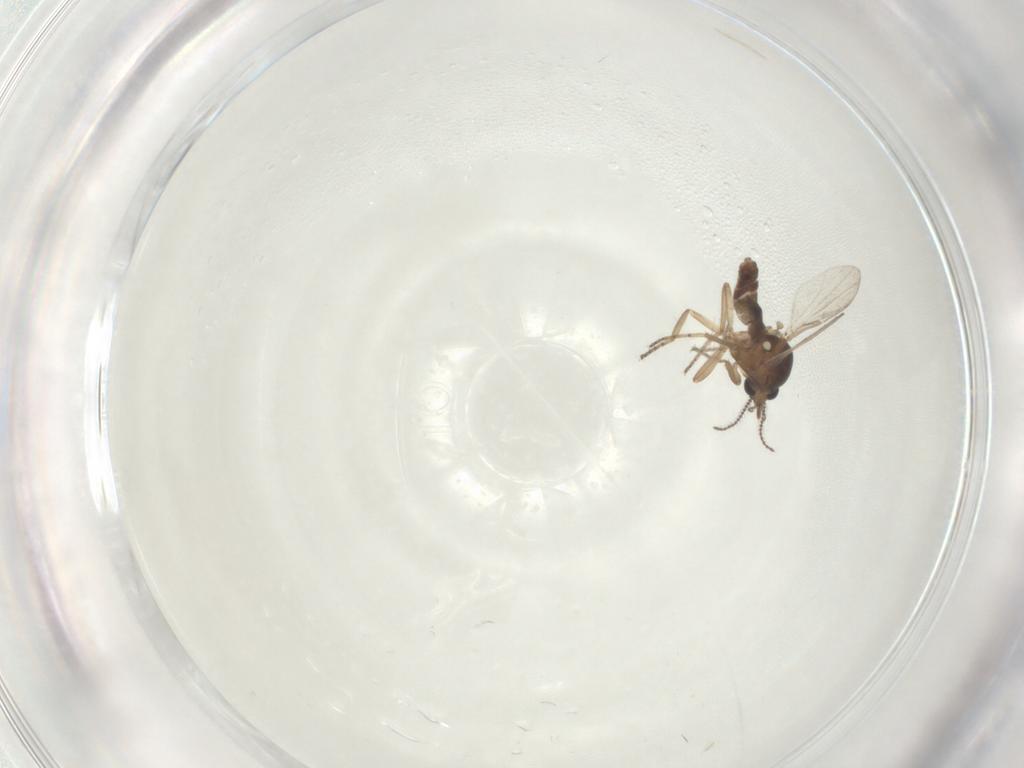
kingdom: Animalia
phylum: Arthropoda
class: Insecta
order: Diptera
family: Ceratopogonidae
